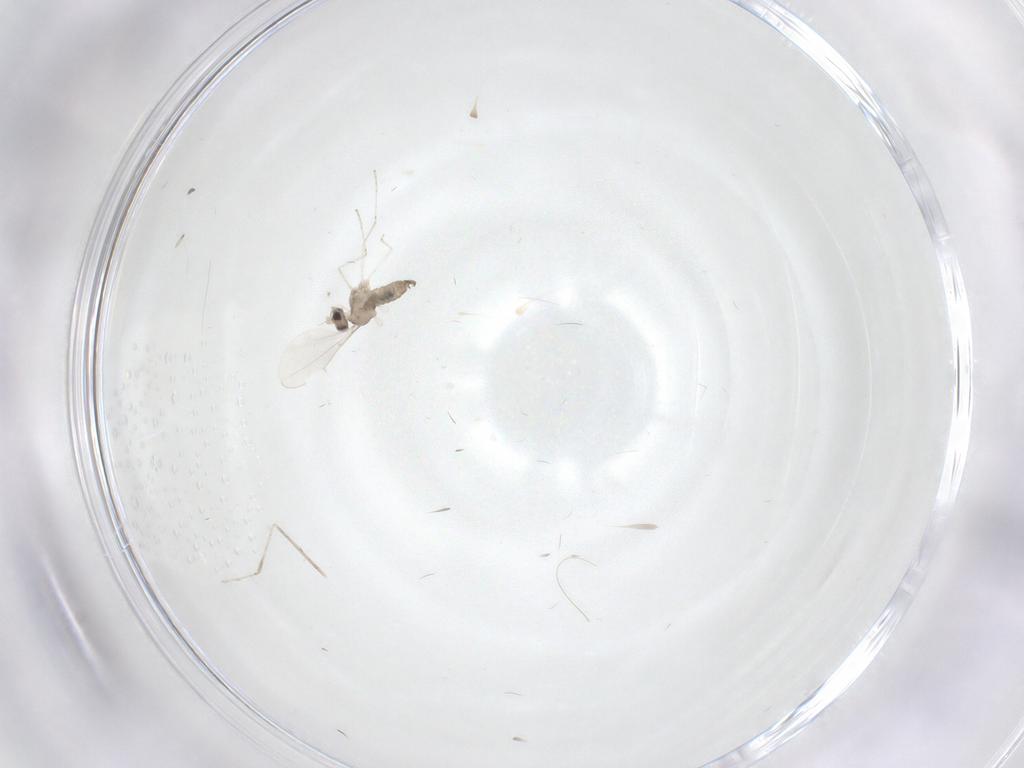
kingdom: Animalia
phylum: Arthropoda
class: Insecta
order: Diptera
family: Cecidomyiidae
